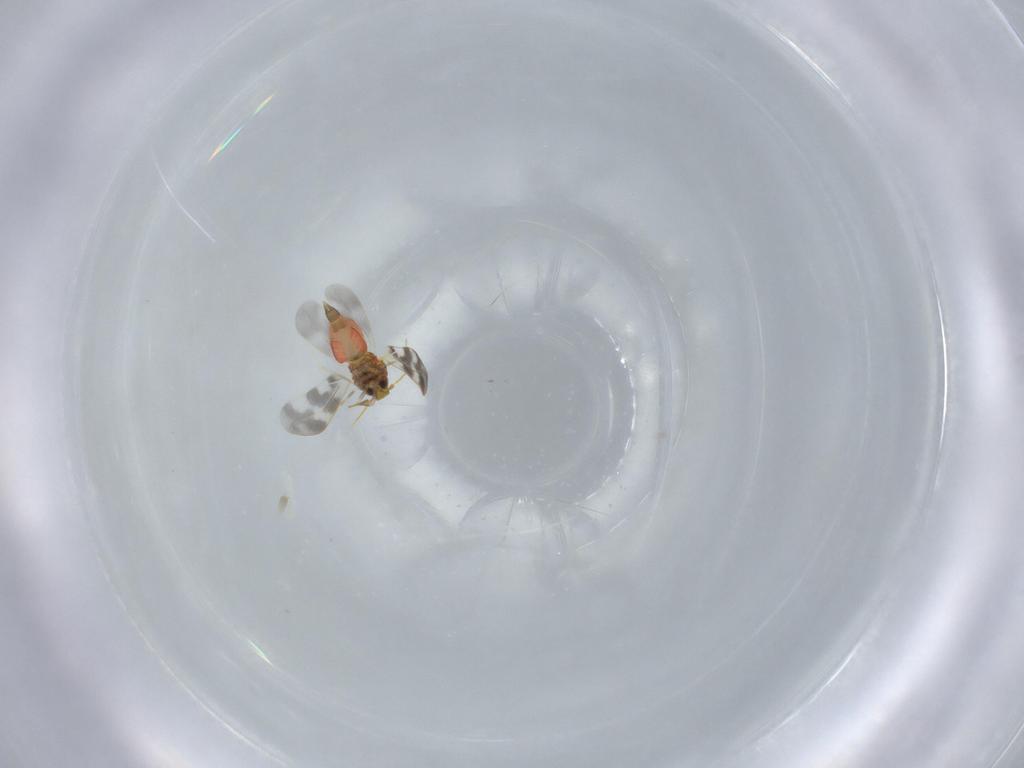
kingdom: Animalia
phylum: Arthropoda
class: Insecta
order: Hemiptera
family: Aleyrodidae
